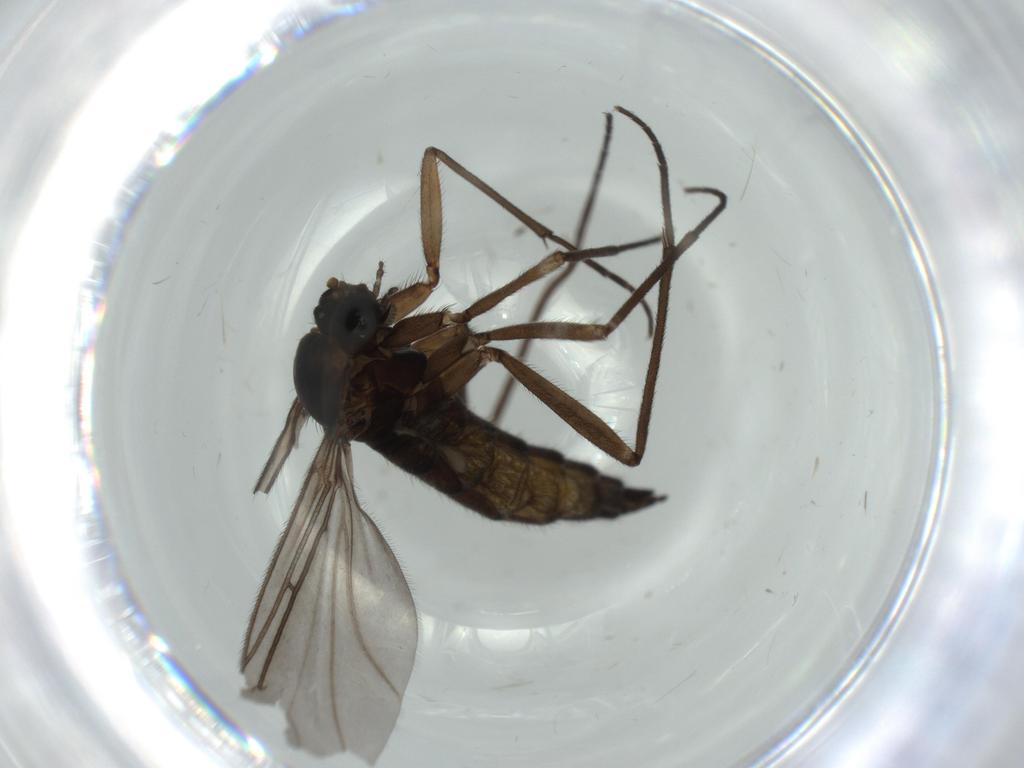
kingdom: Animalia
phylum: Arthropoda
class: Insecta
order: Diptera
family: Sciaridae
